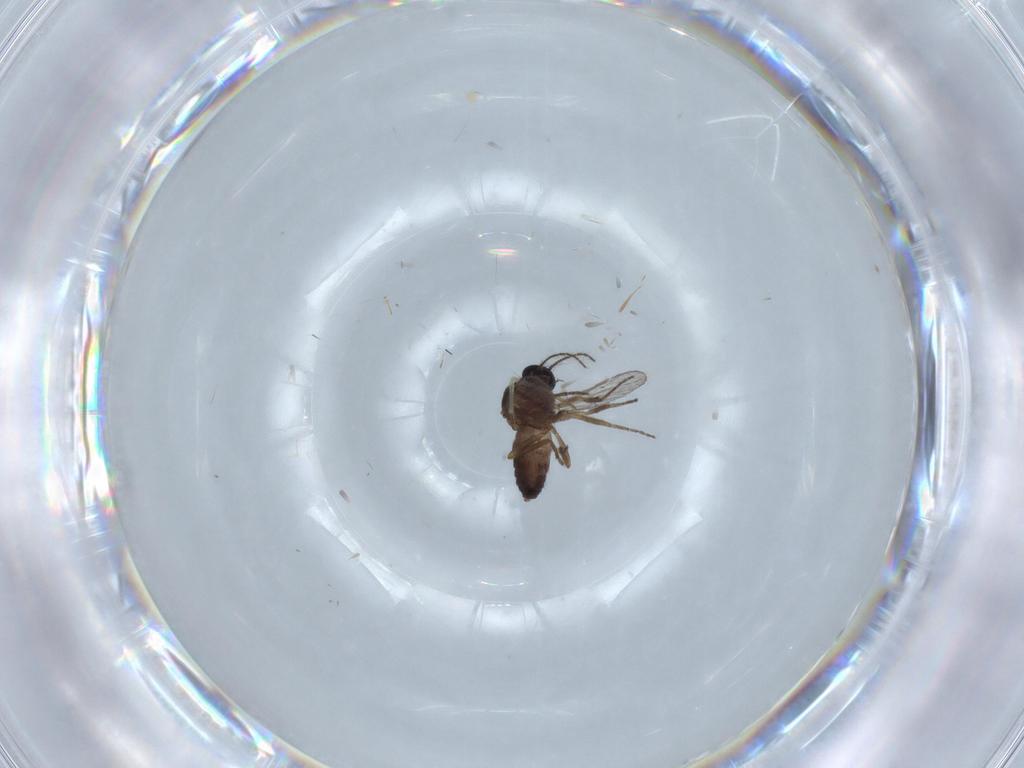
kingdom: Animalia
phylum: Arthropoda
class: Insecta
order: Diptera
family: Chironomidae
